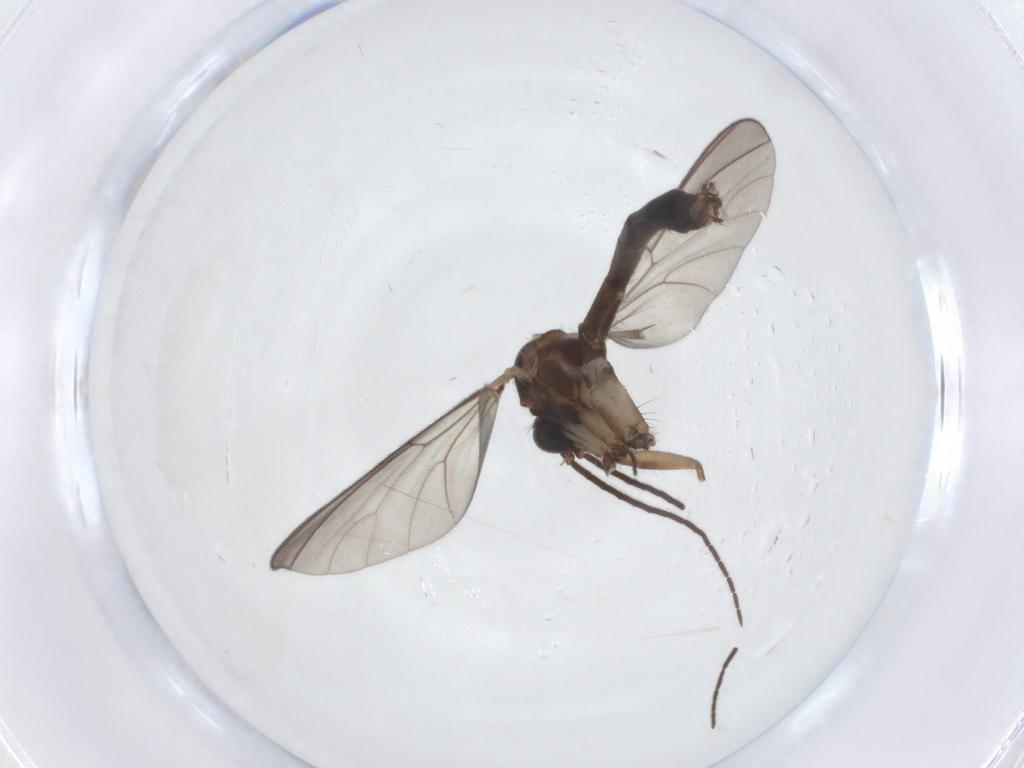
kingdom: Animalia
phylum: Arthropoda
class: Insecta
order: Diptera
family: Mycetophilidae
